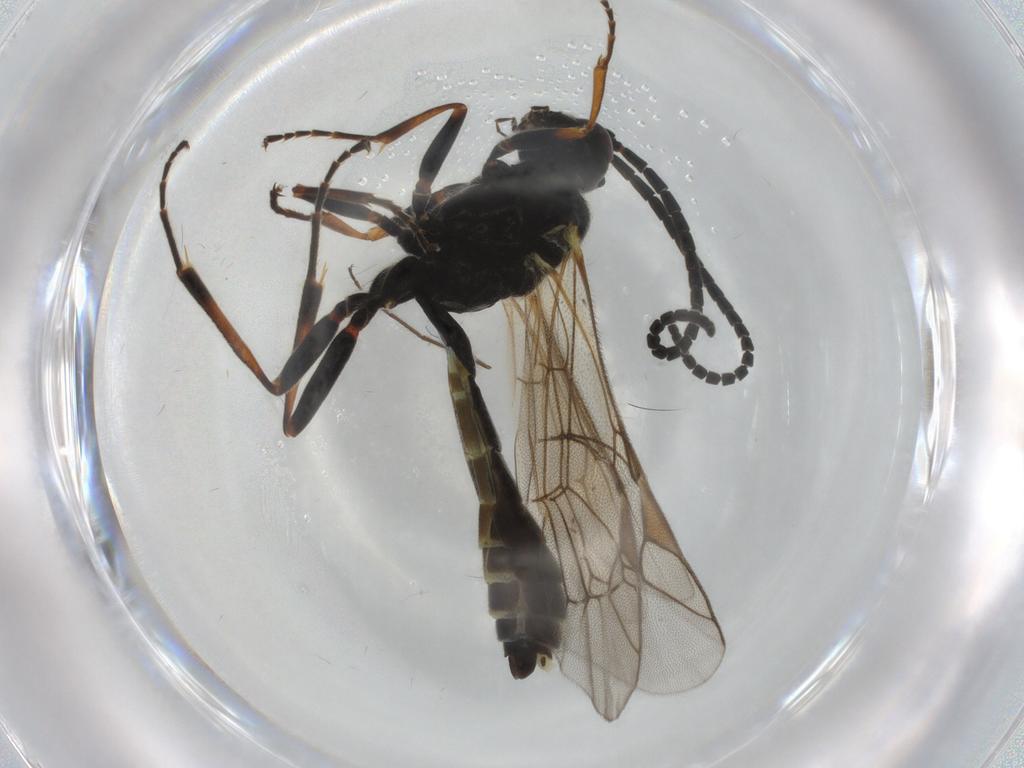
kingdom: Animalia
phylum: Arthropoda
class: Insecta
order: Hymenoptera
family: Ichneumonidae
